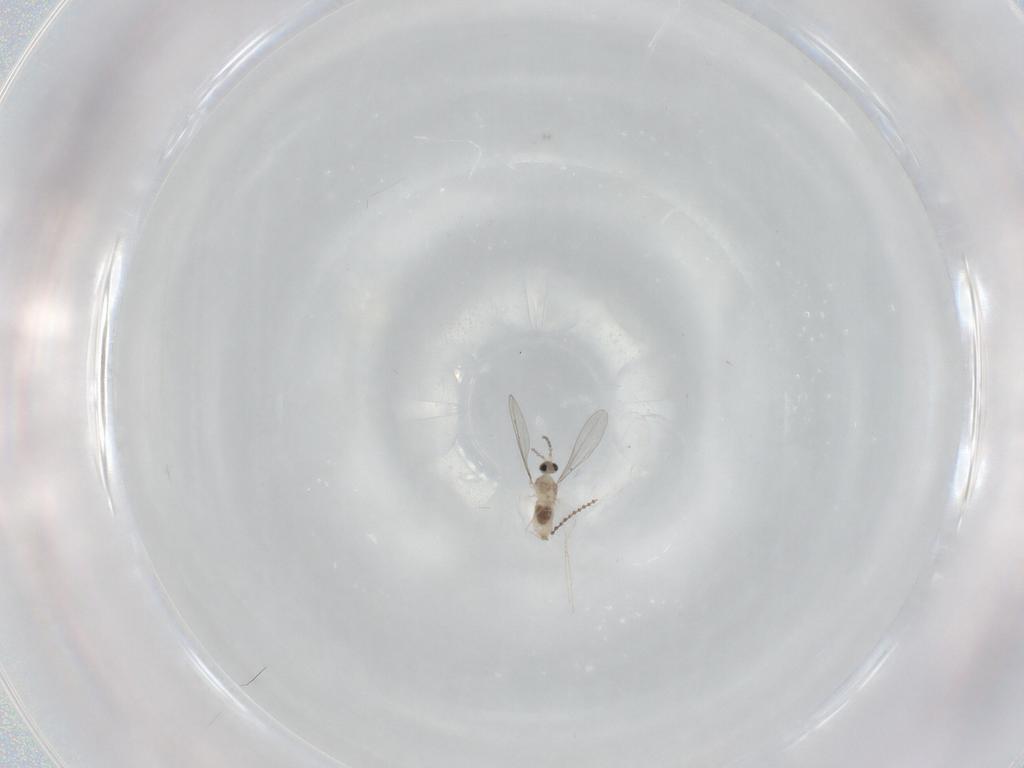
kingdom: Animalia
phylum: Arthropoda
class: Insecta
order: Diptera
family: Cecidomyiidae
